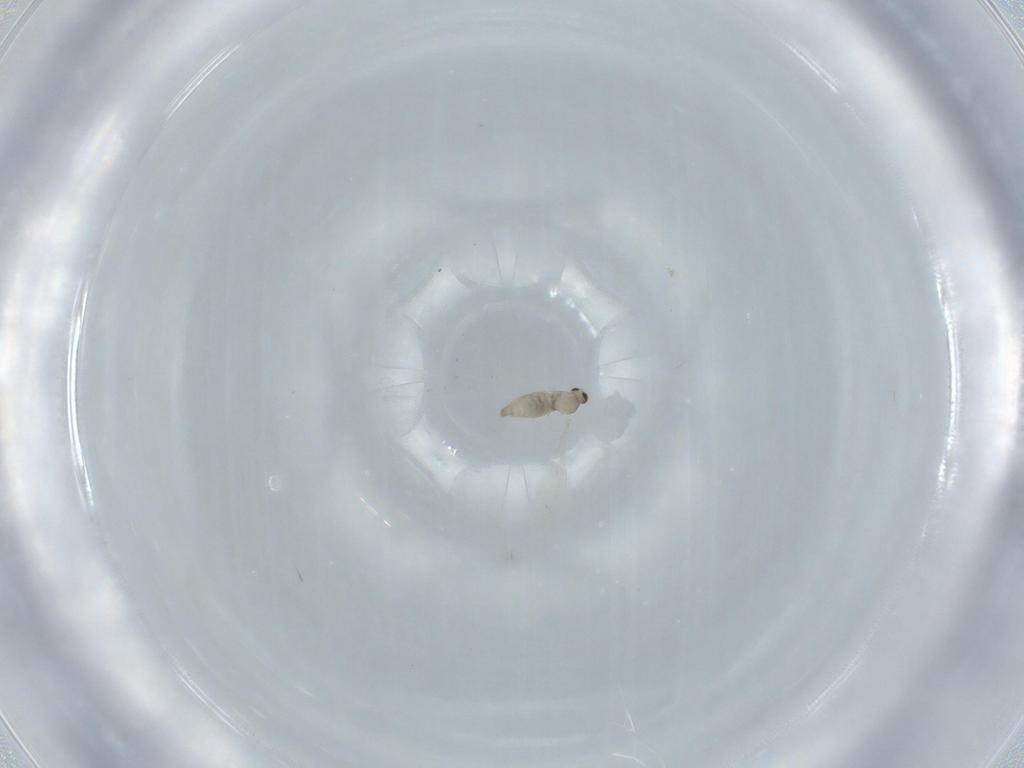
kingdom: Animalia
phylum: Arthropoda
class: Insecta
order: Diptera
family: Cecidomyiidae
